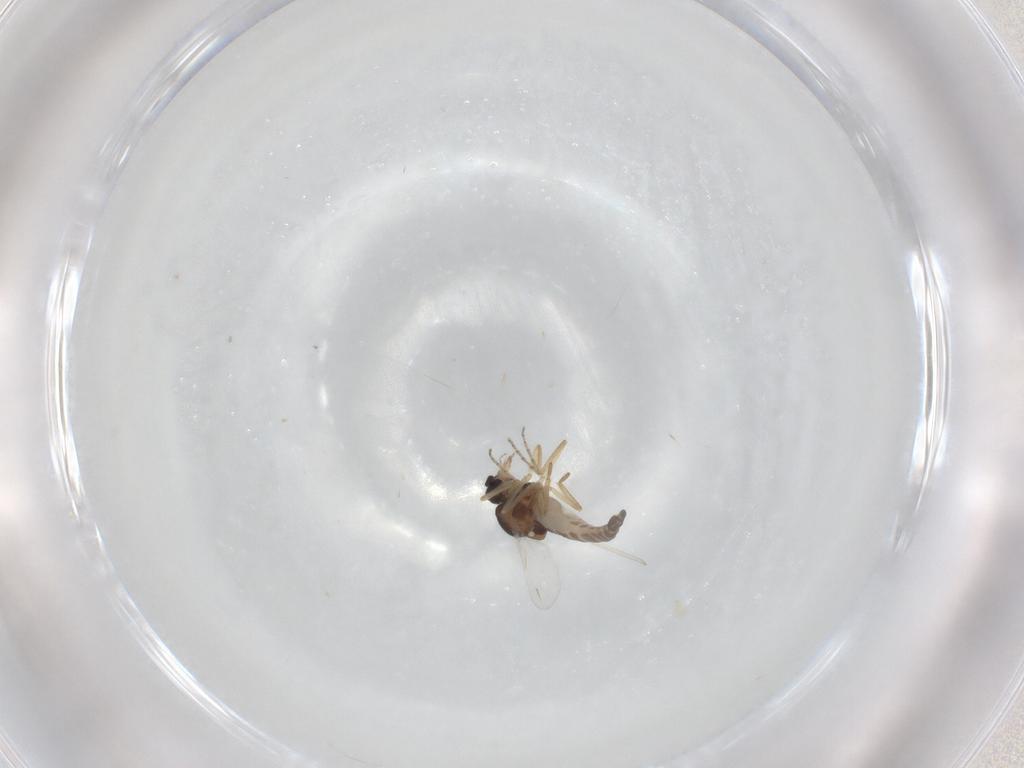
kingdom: Animalia
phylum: Arthropoda
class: Insecta
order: Diptera
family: Ceratopogonidae
